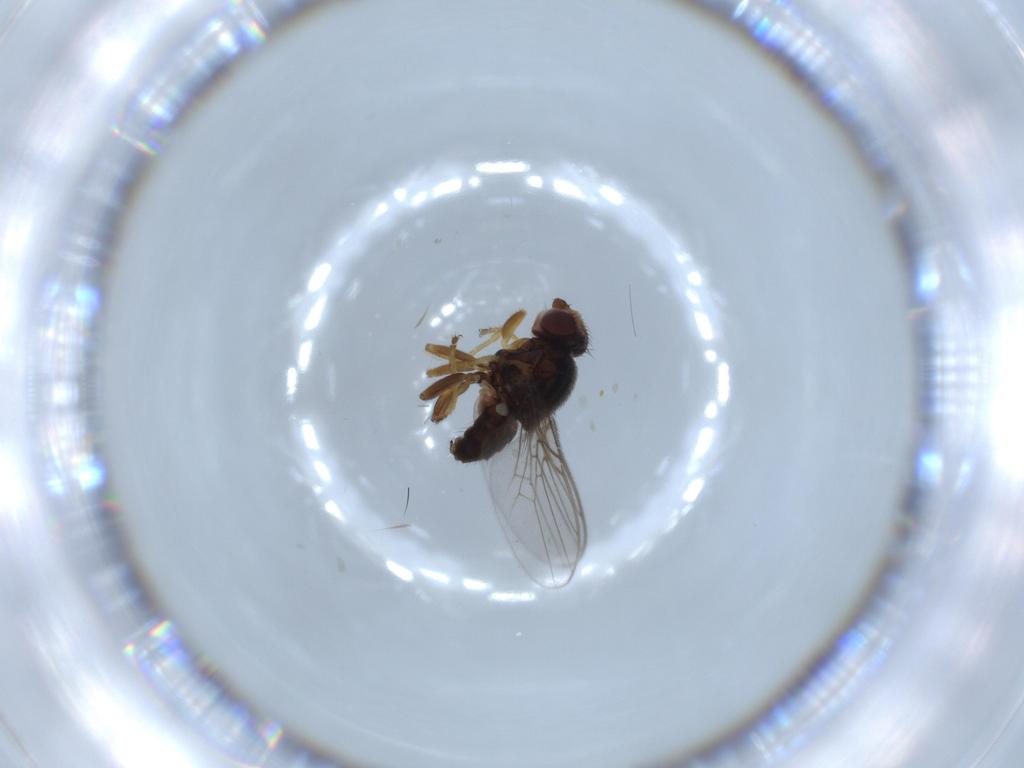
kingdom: Animalia
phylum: Arthropoda
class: Insecta
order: Diptera
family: Chloropidae
